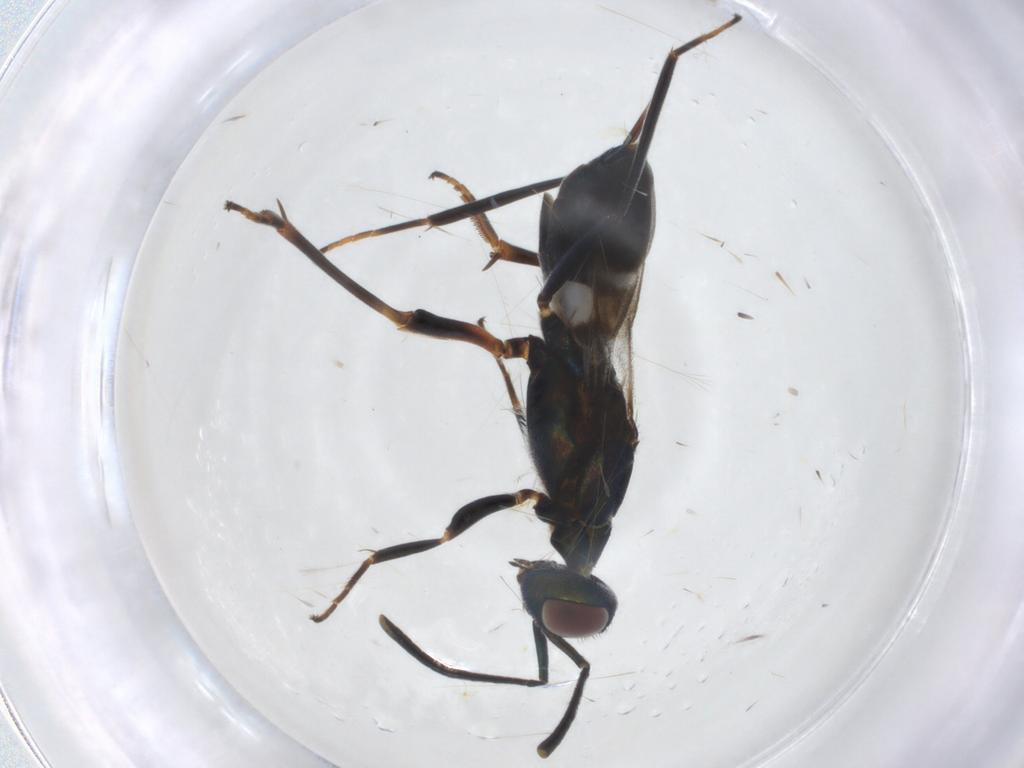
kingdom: Animalia
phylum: Arthropoda
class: Insecta
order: Hymenoptera
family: Eupelmidae
